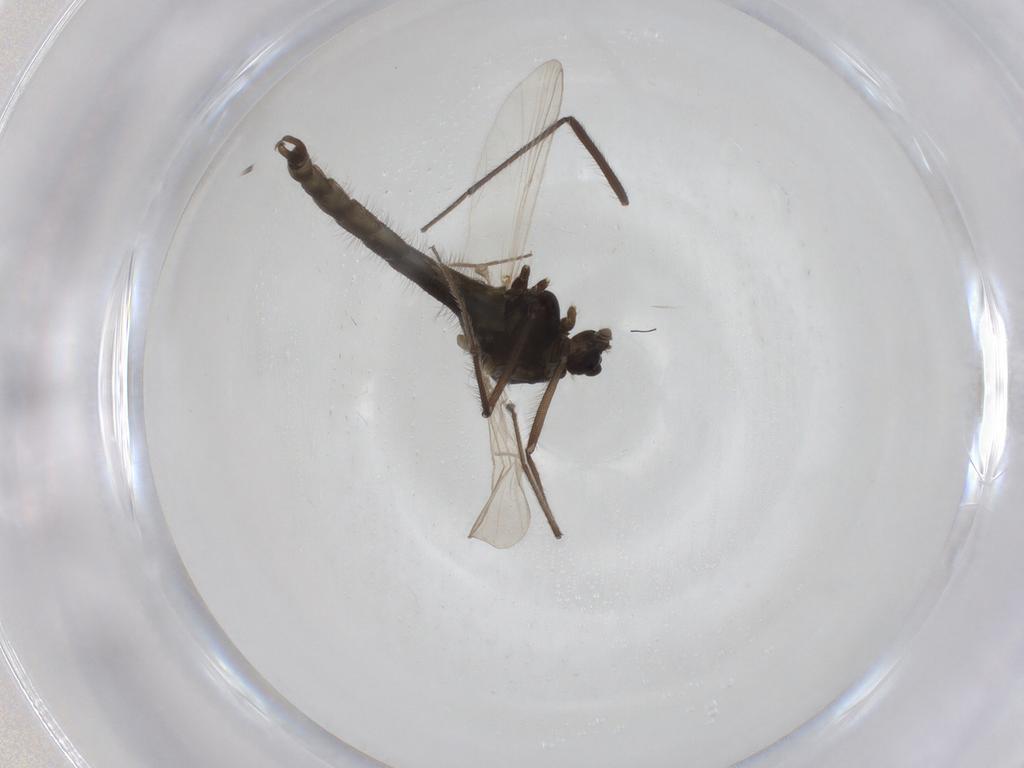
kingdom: Animalia
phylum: Arthropoda
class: Insecta
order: Diptera
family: Chironomidae
